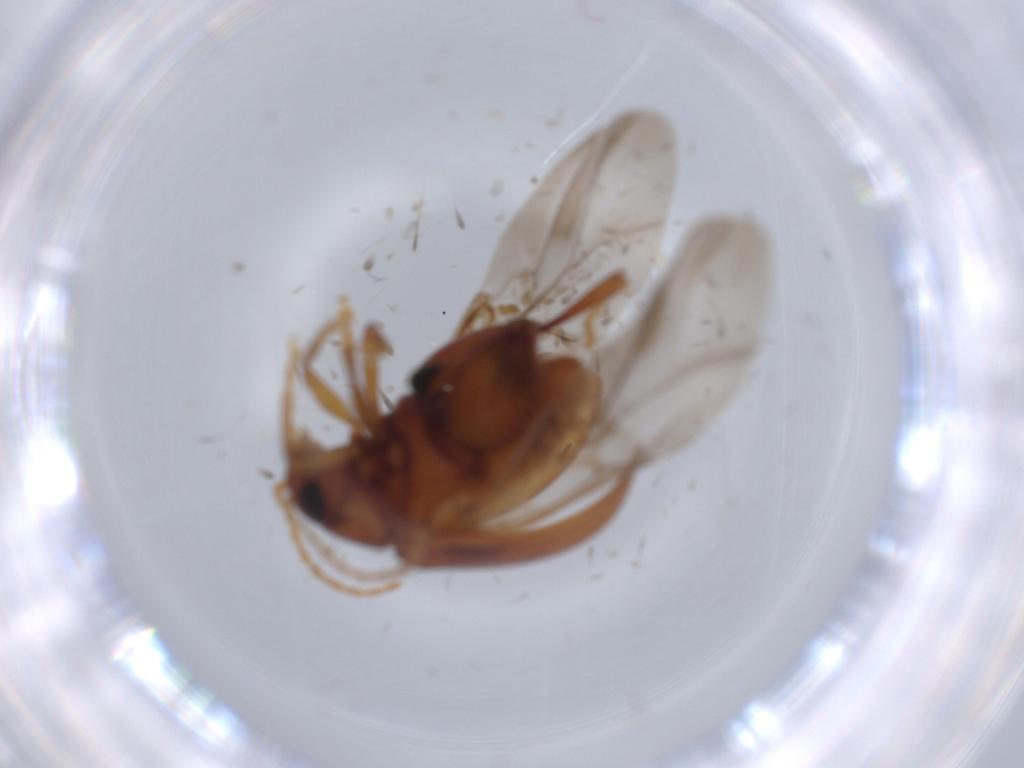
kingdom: Animalia
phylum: Arthropoda
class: Insecta
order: Coleoptera
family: Chrysomelidae
